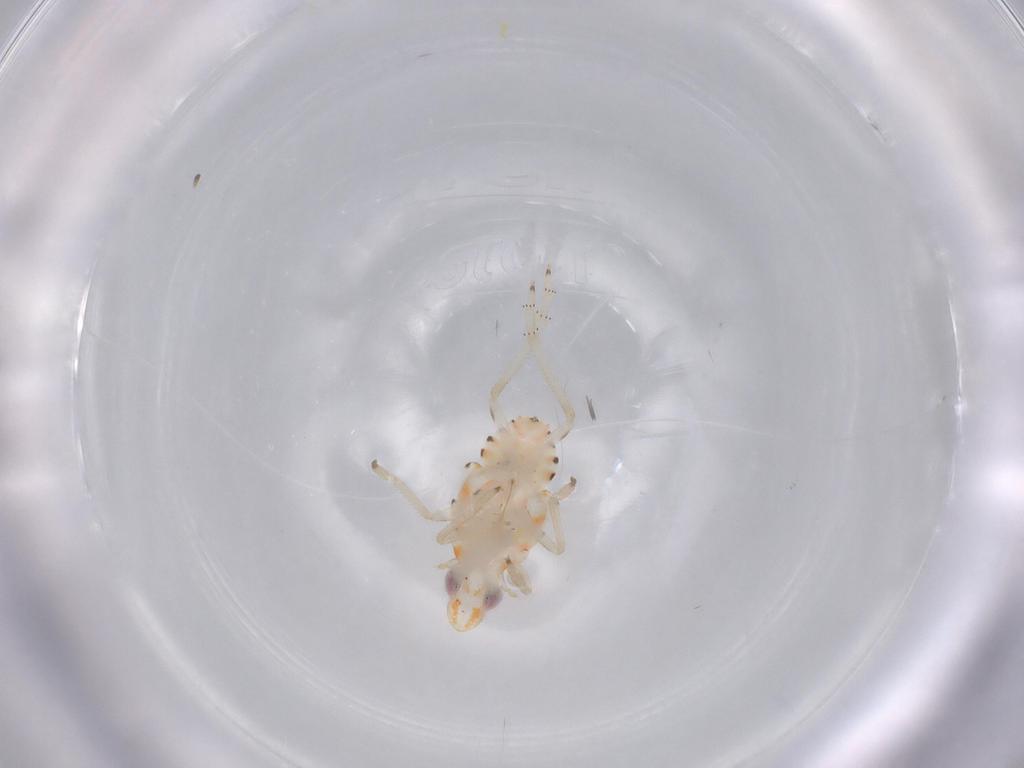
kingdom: Animalia
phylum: Arthropoda
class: Insecta
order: Hemiptera
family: Tropiduchidae
